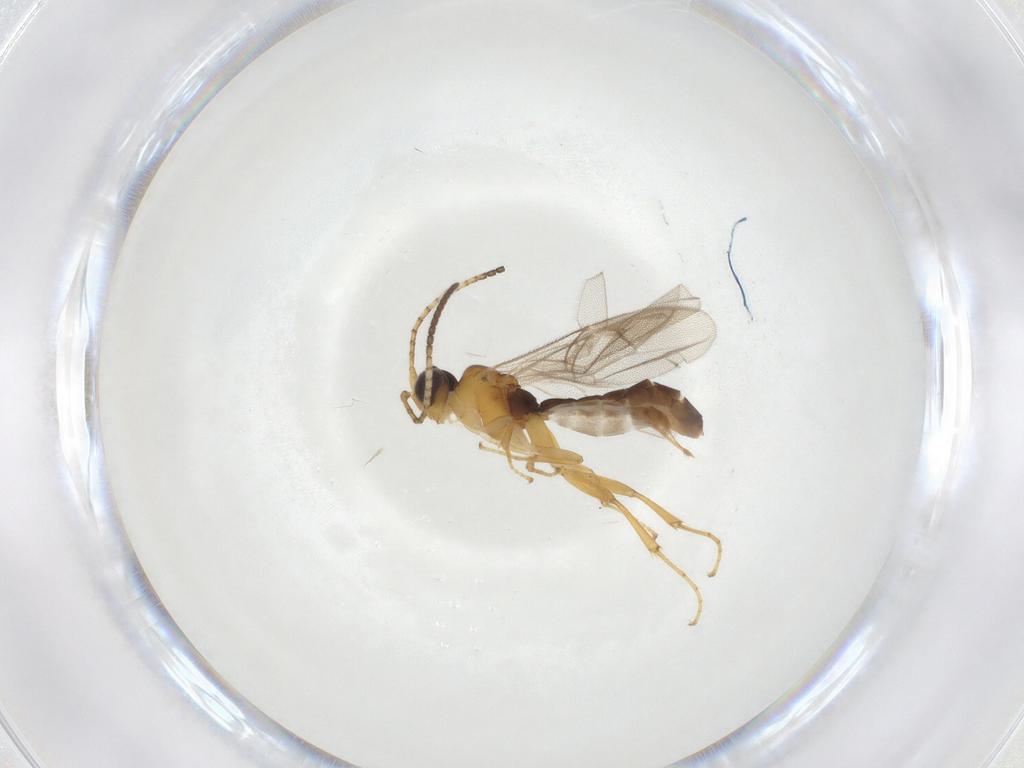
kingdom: Animalia
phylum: Arthropoda
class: Insecta
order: Hymenoptera
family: Ichneumonidae
